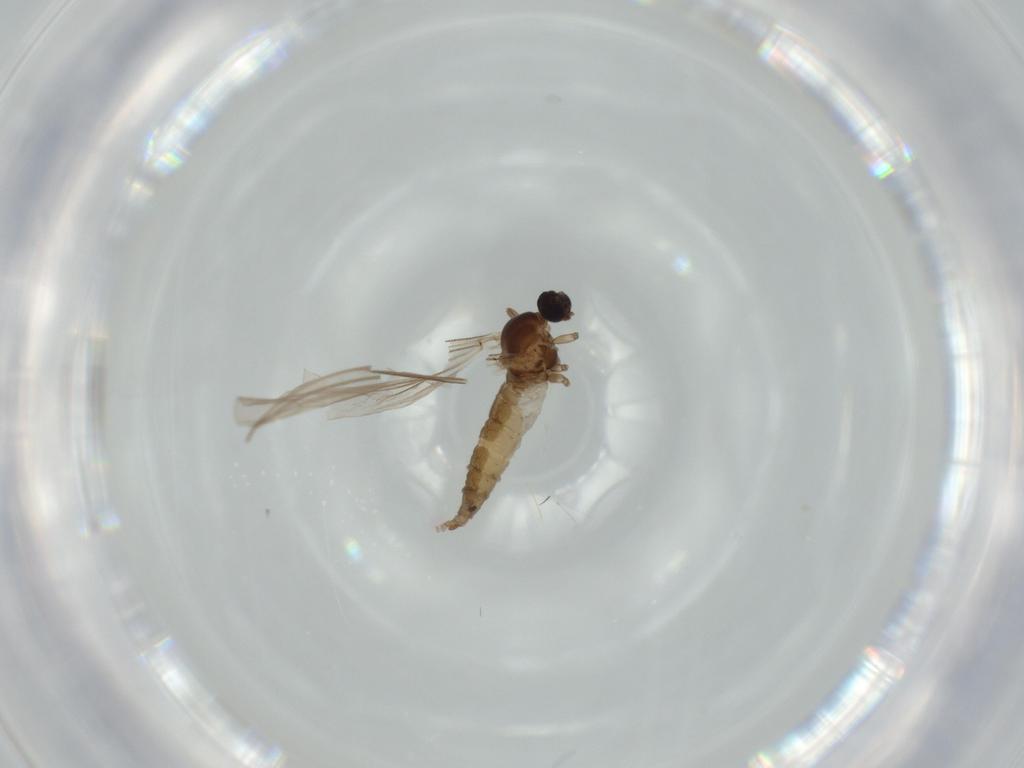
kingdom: Animalia
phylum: Arthropoda
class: Insecta
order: Diptera
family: Cecidomyiidae
